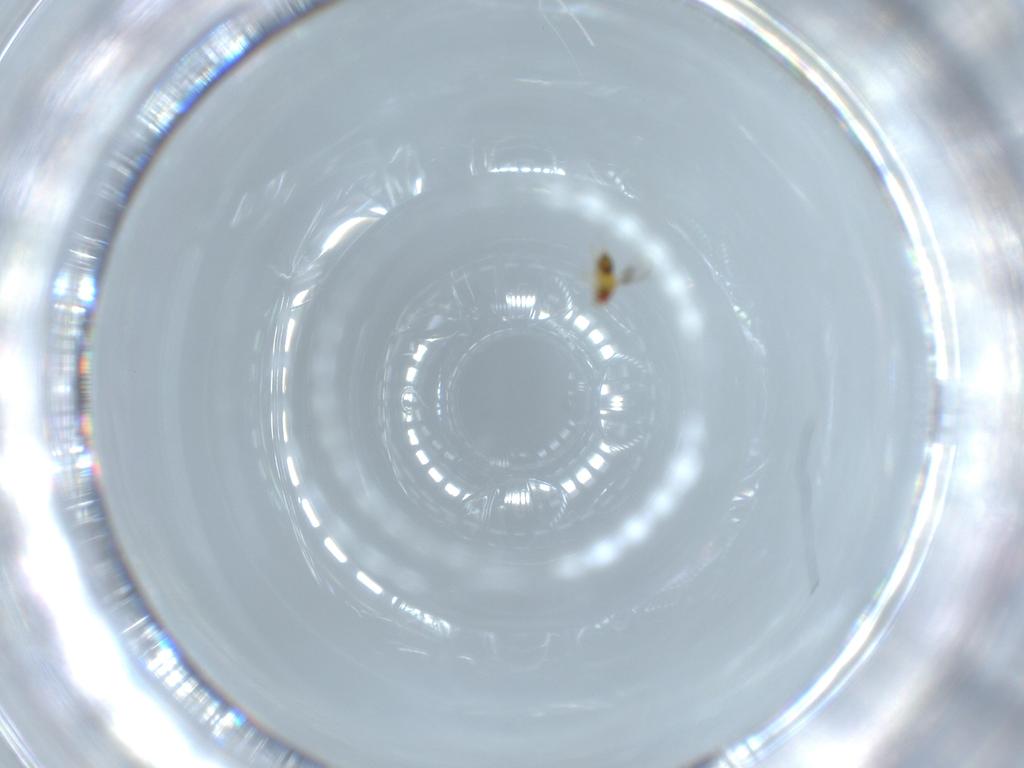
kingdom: Animalia
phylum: Arthropoda
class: Insecta
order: Hymenoptera
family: Trichogrammatidae
